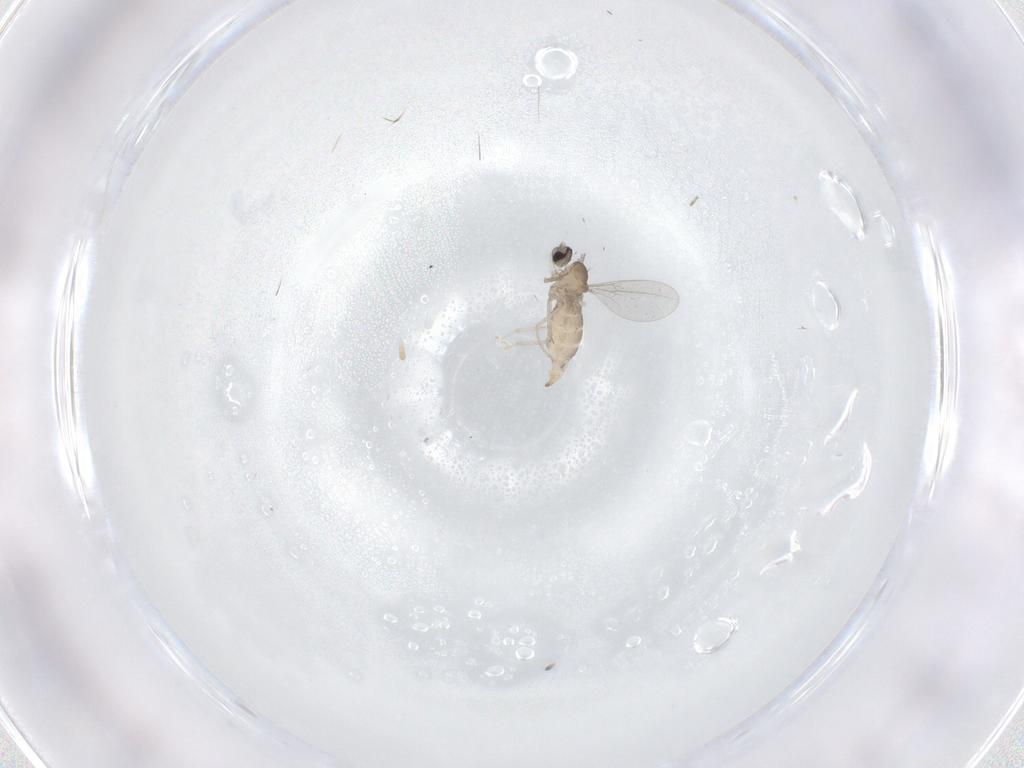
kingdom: Animalia
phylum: Arthropoda
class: Insecta
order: Diptera
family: Cecidomyiidae
